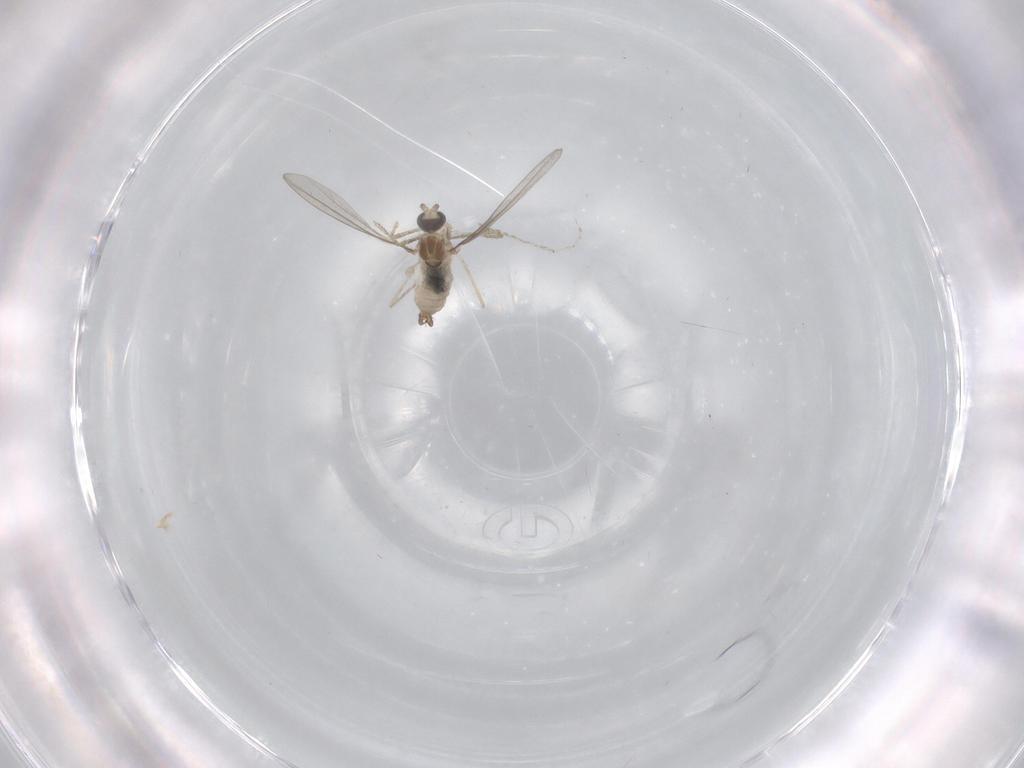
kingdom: Animalia
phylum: Arthropoda
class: Insecta
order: Diptera
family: Cecidomyiidae
